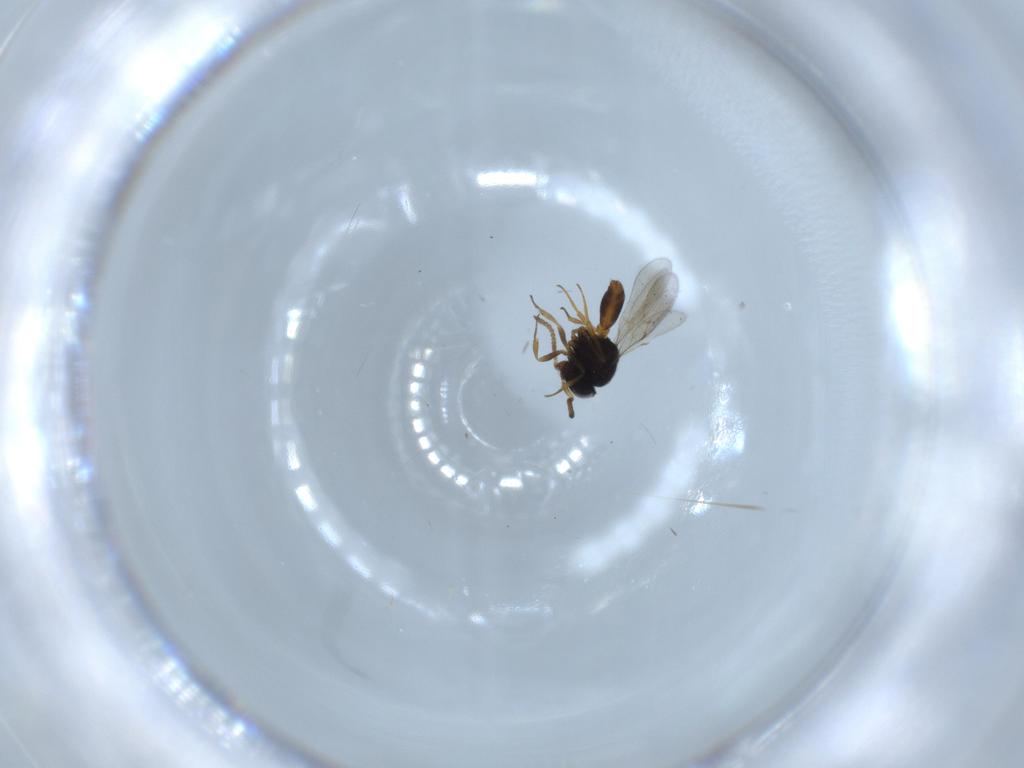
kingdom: Animalia
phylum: Arthropoda
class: Insecta
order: Hymenoptera
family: Scelionidae
